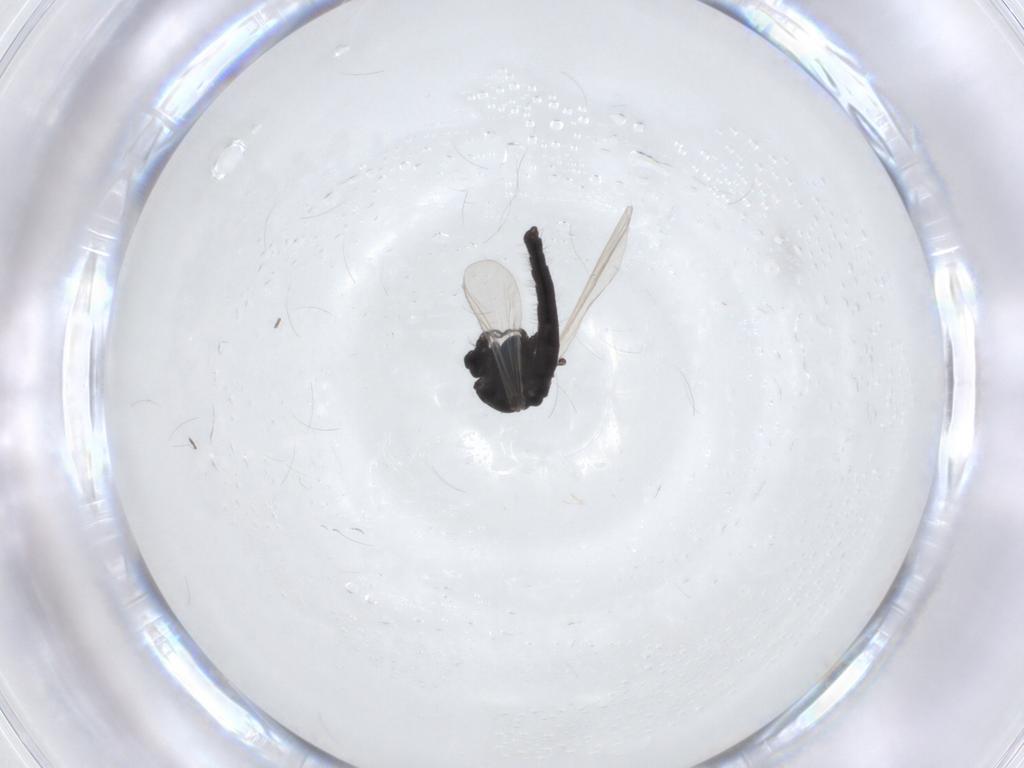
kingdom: Animalia
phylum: Arthropoda
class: Insecta
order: Diptera
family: Chironomidae
